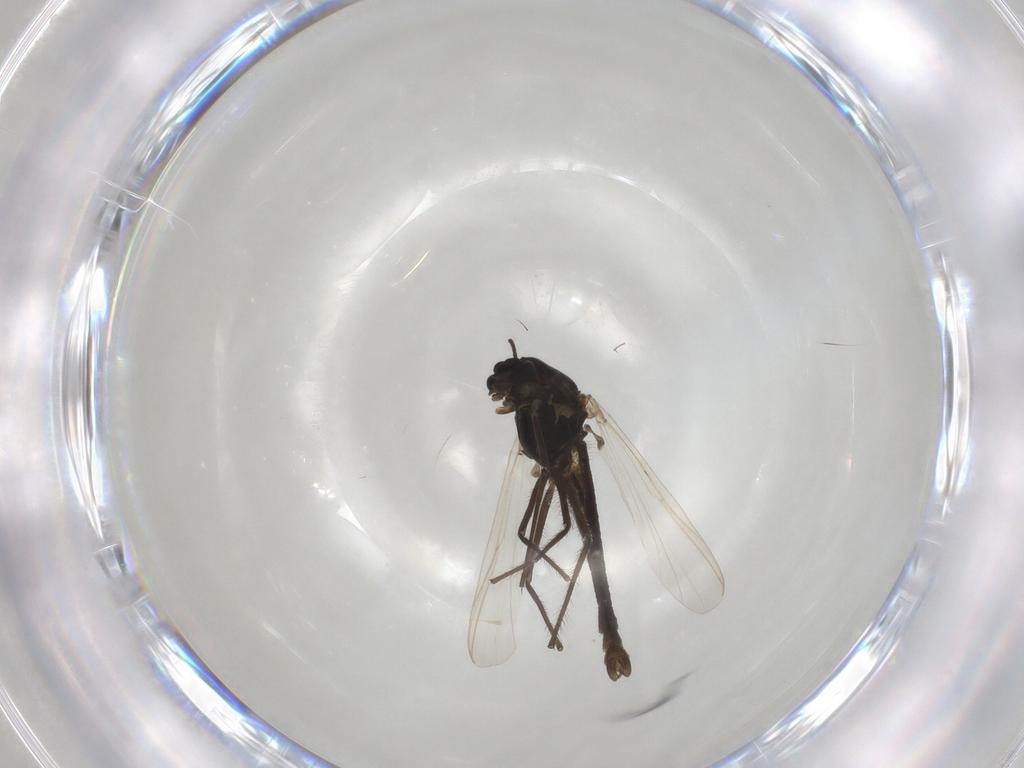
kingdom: Animalia
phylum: Arthropoda
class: Insecta
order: Diptera
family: Chironomidae
